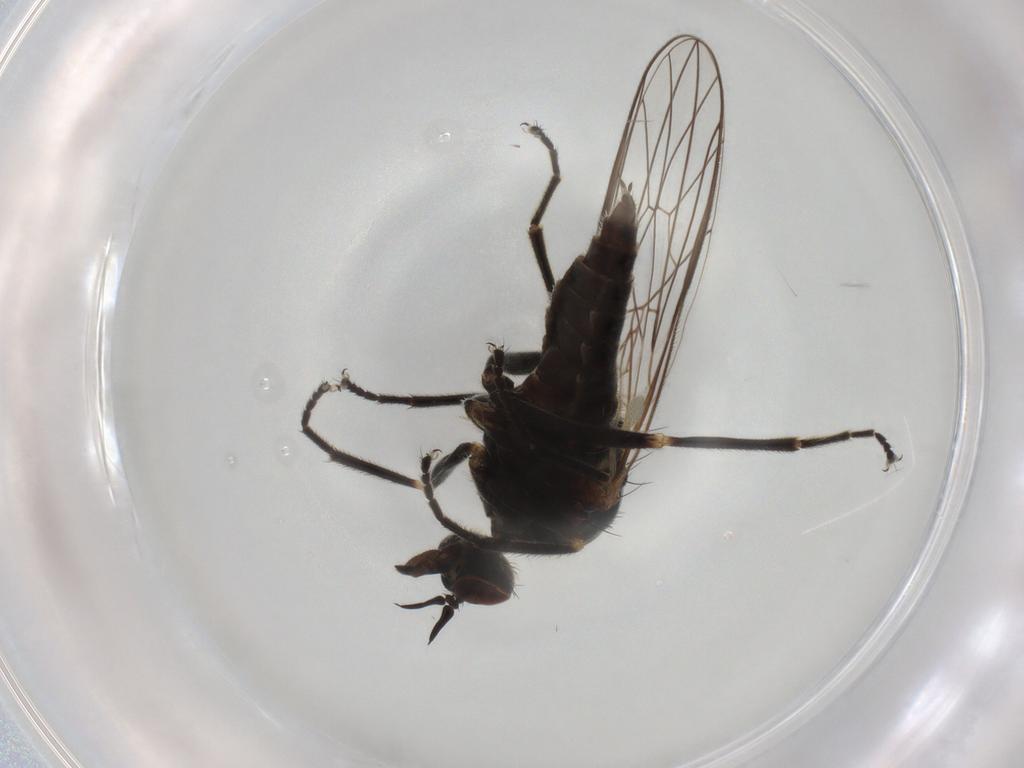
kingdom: Animalia
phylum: Arthropoda
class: Insecta
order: Diptera
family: Empididae
